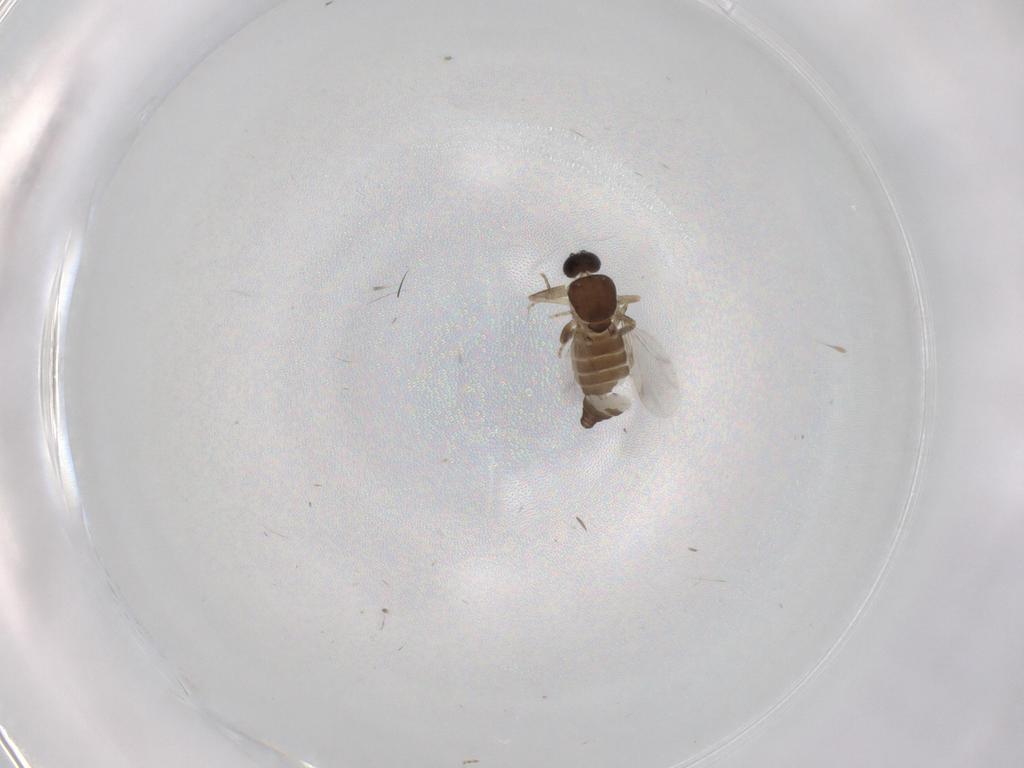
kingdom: Animalia
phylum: Arthropoda
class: Insecta
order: Diptera
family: Ceratopogonidae
